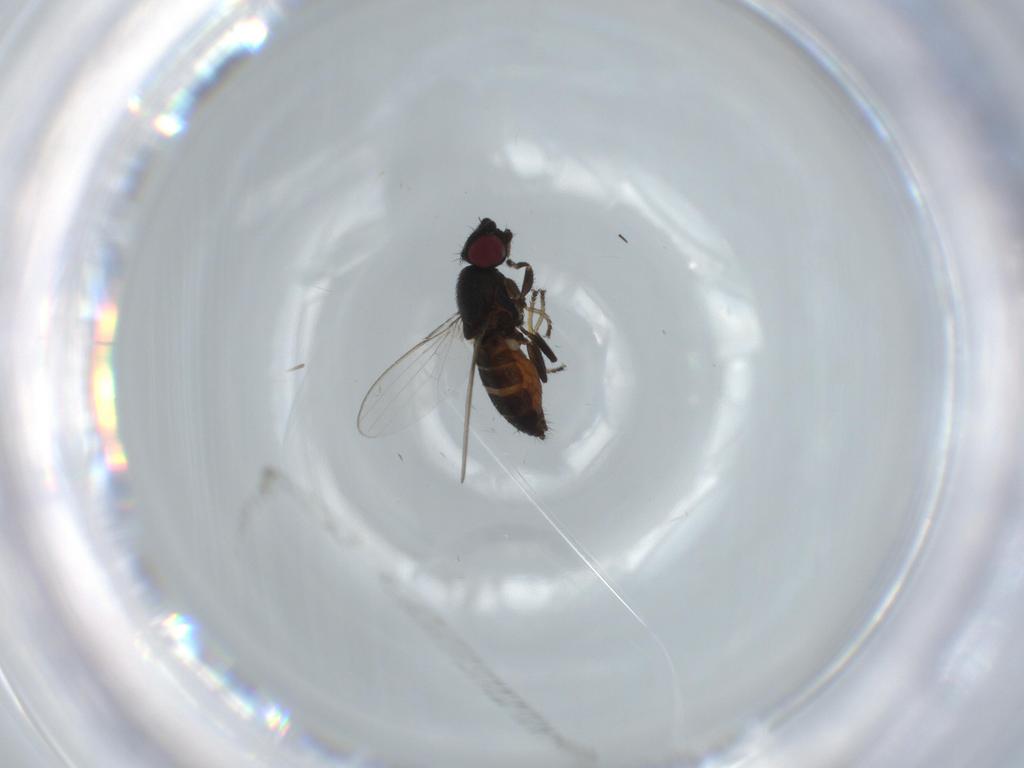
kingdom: Animalia
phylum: Arthropoda
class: Insecta
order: Diptera
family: Milichiidae
